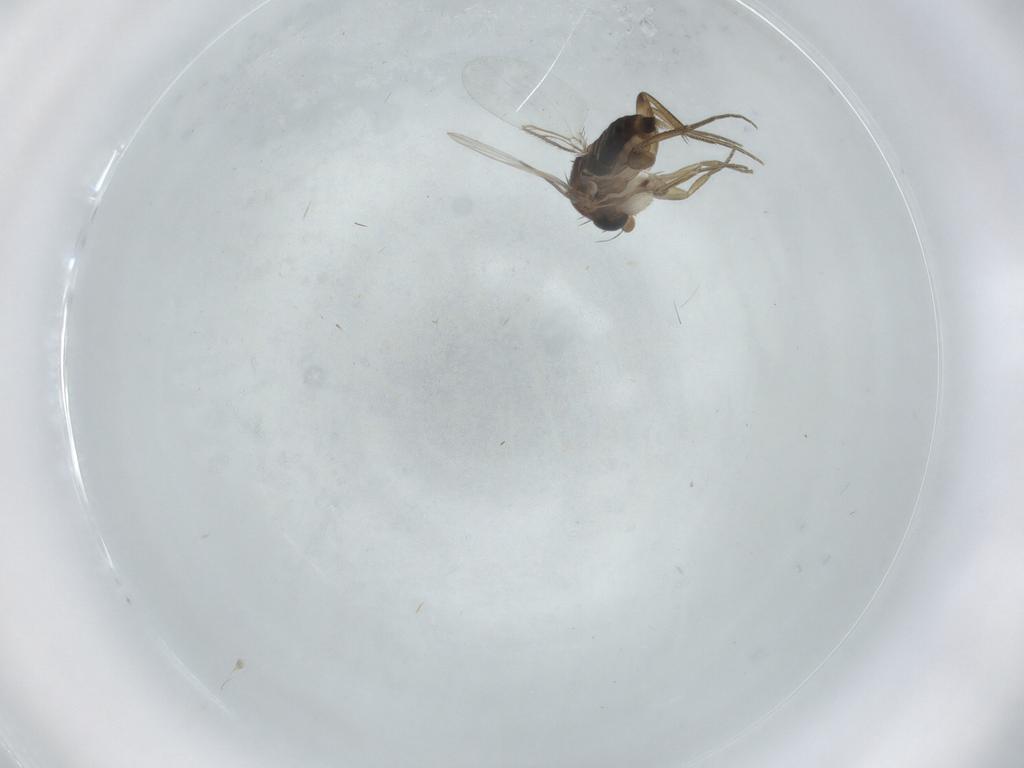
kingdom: Animalia
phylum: Arthropoda
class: Insecta
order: Diptera
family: Phoridae
